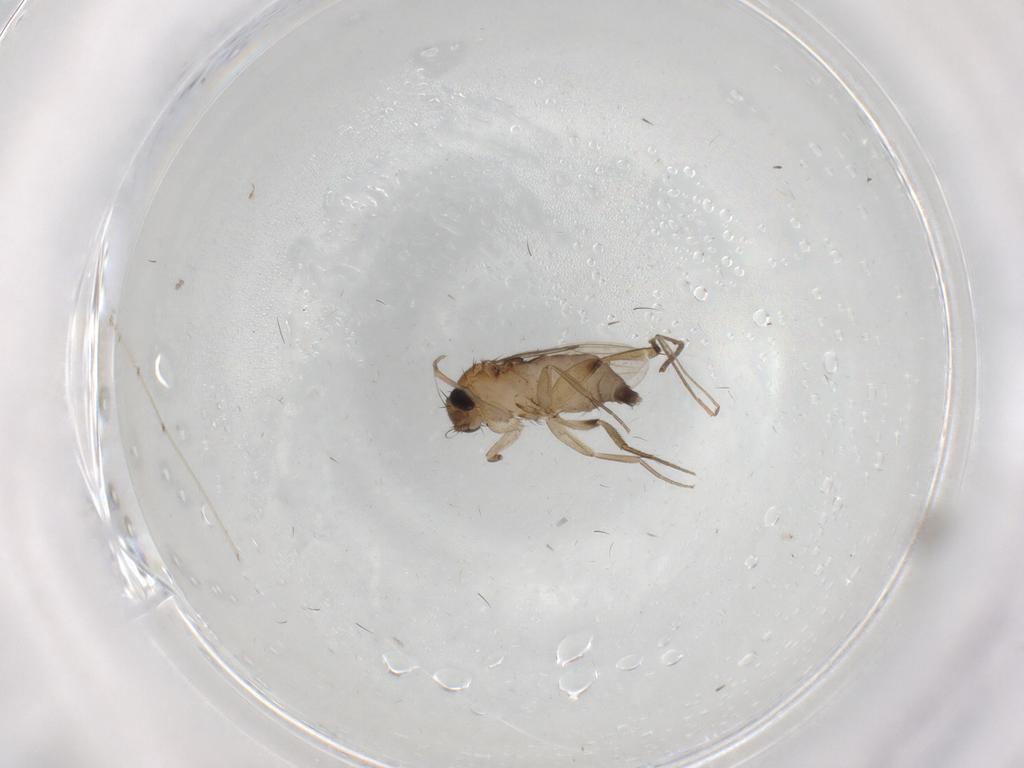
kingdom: Animalia
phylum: Arthropoda
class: Insecta
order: Diptera
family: Phoridae
